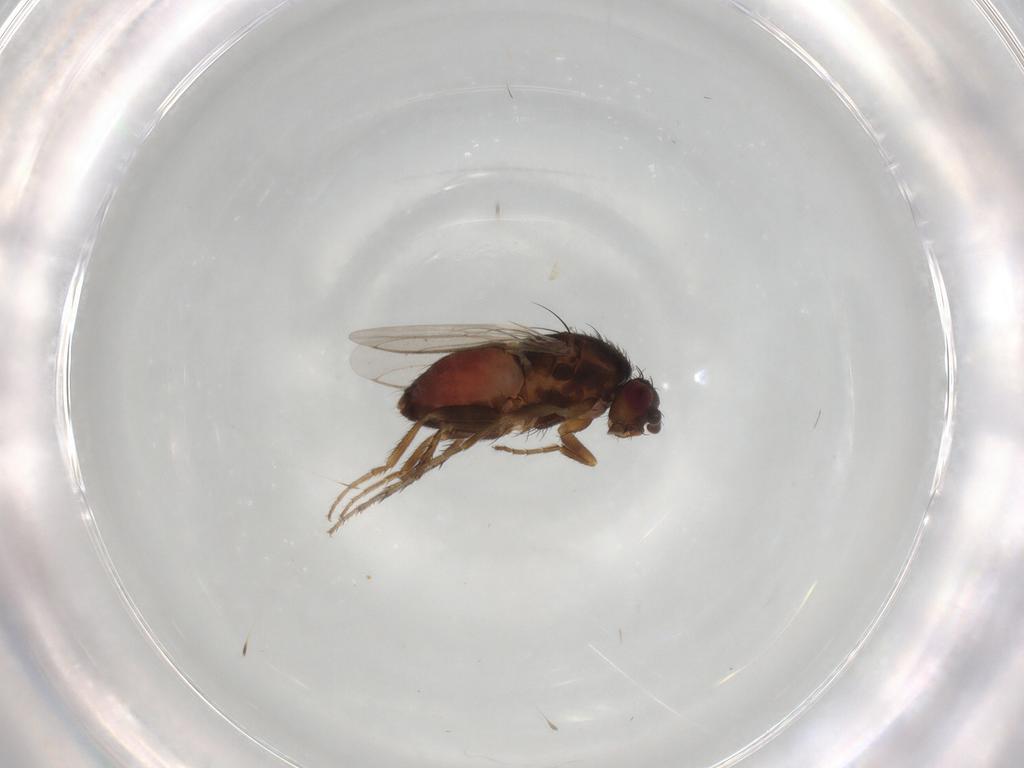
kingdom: Animalia
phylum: Arthropoda
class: Insecta
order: Diptera
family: Sphaeroceridae
